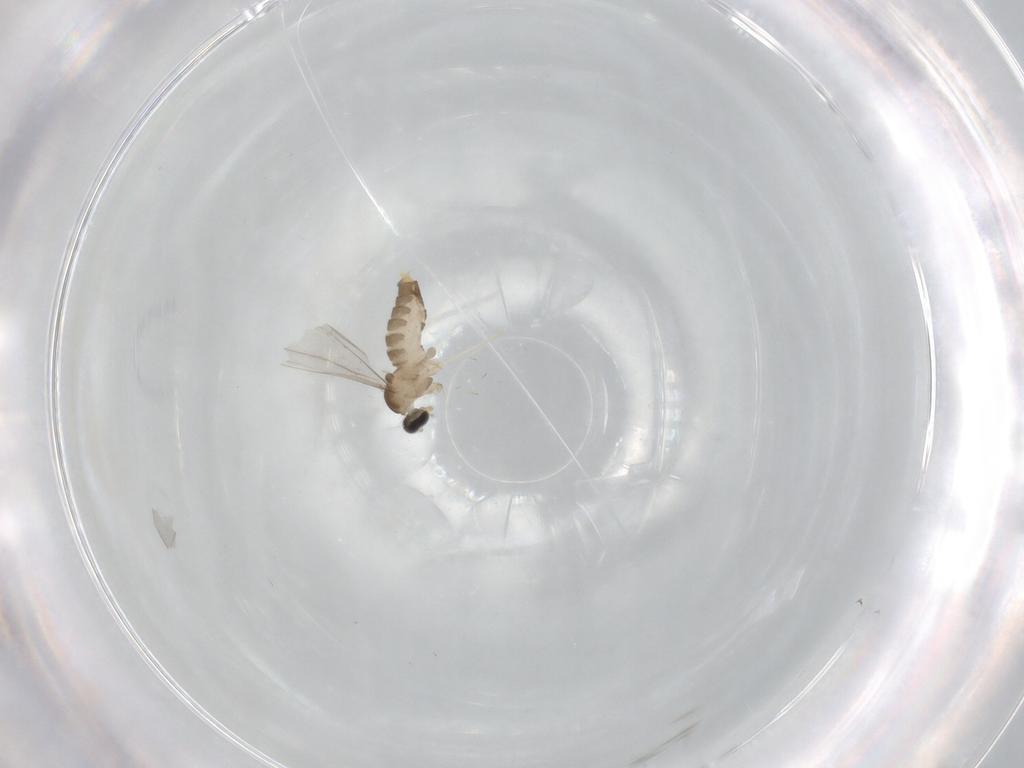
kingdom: Animalia
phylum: Arthropoda
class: Insecta
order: Diptera
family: Cecidomyiidae
